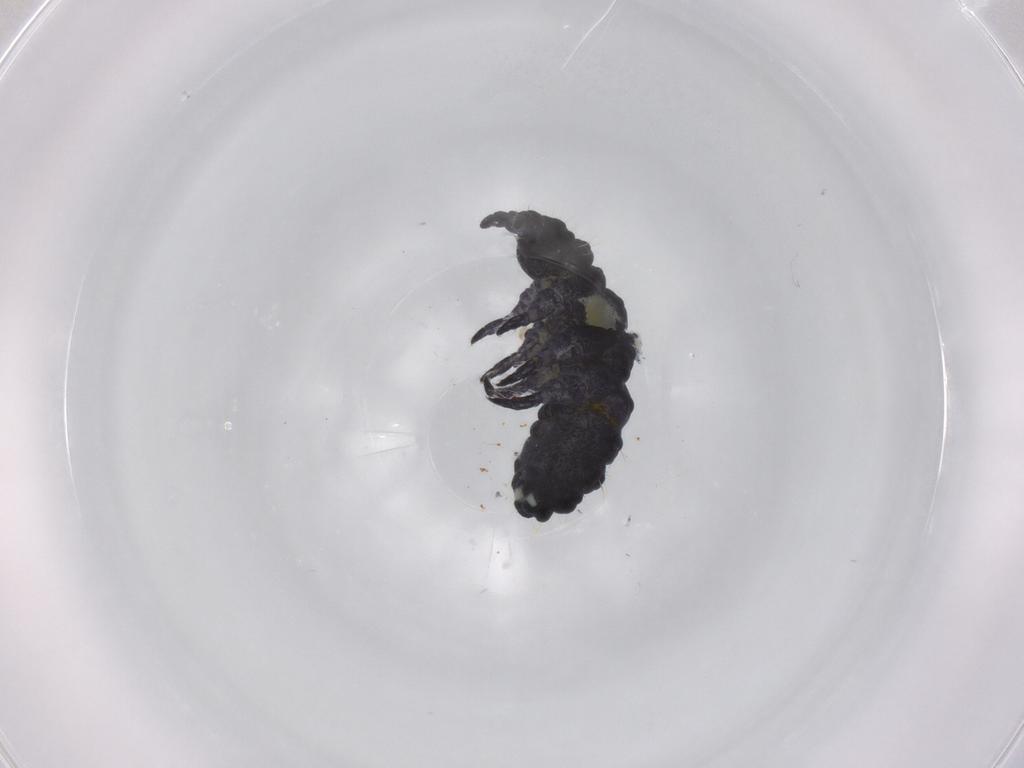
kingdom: Animalia
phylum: Arthropoda
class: Collembola
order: Poduromorpha
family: Neanuridae
